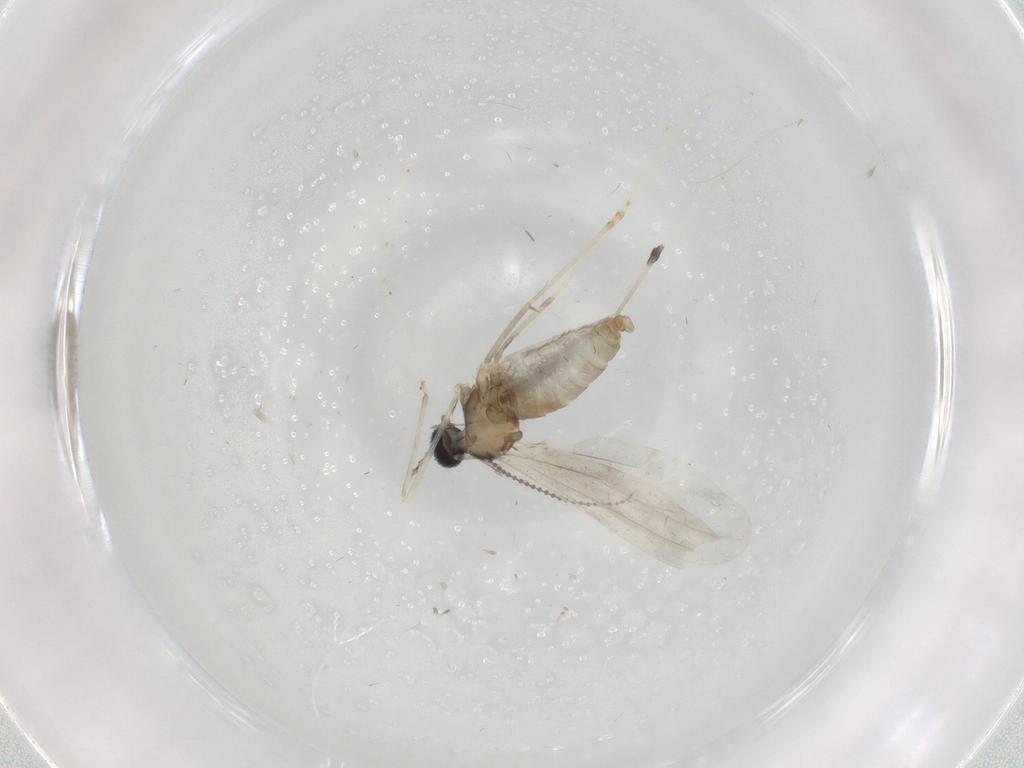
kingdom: Animalia
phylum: Arthropoda
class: Insecta
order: Diptera
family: Cecidomyiidae
